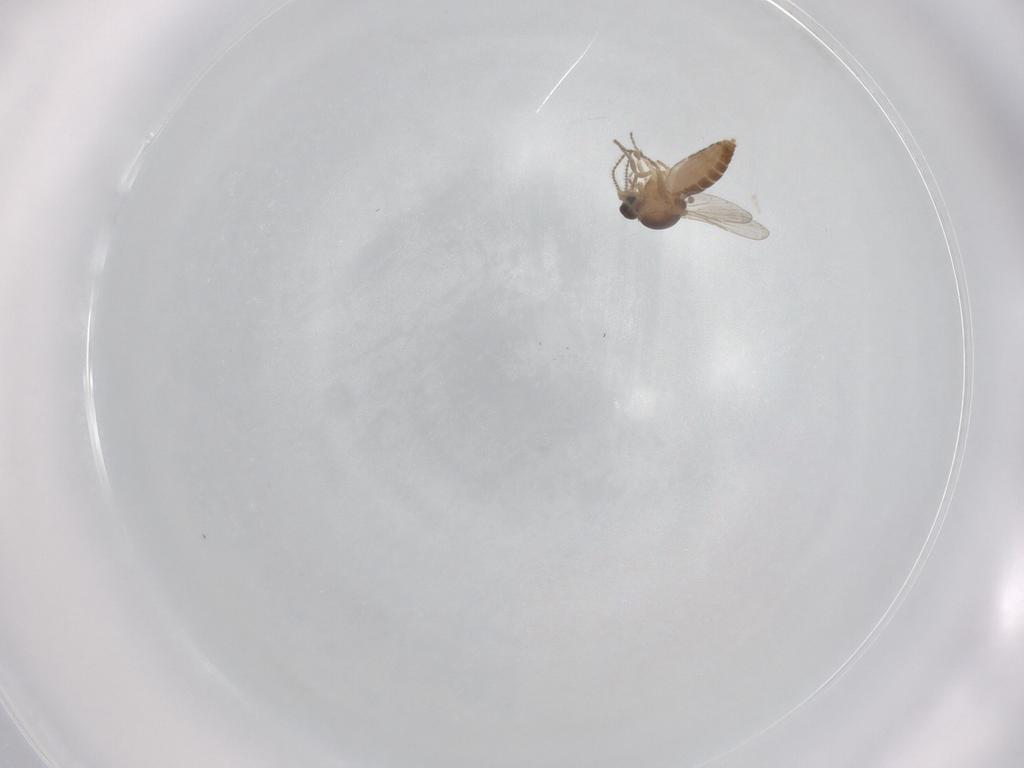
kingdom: Animalia
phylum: Arthropoda
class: Insecta
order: Diptera
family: Ceratopogonidae
